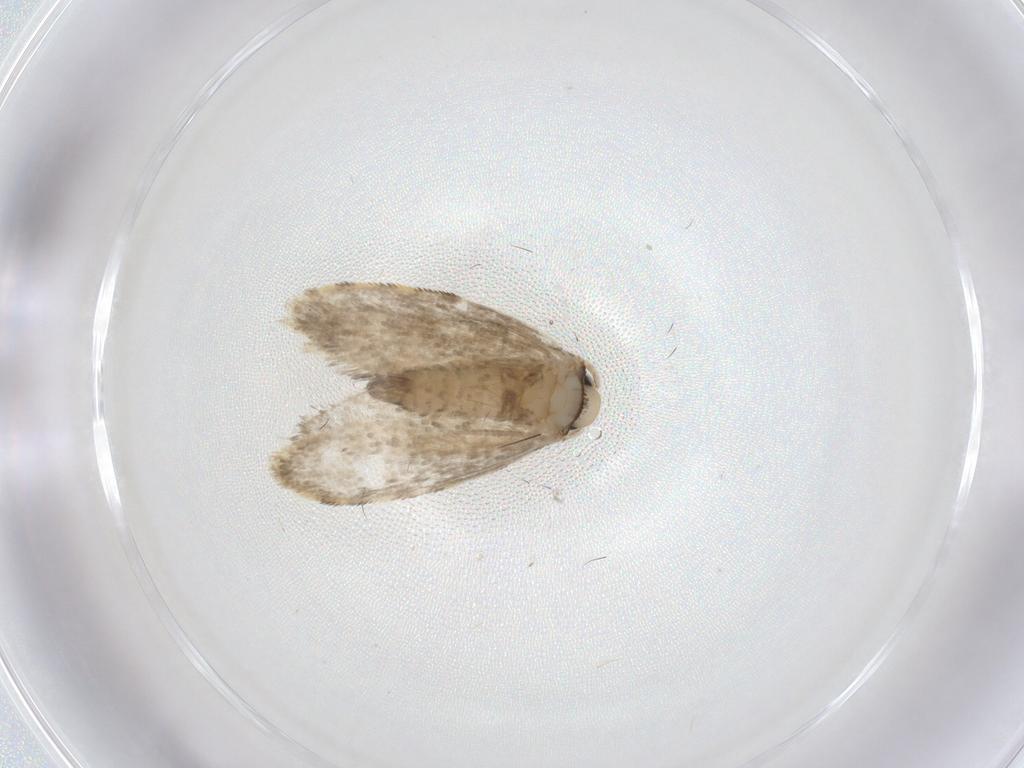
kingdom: Animalia
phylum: Arthropoda
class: Insecta
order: Lepidoptera
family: Psychidae
